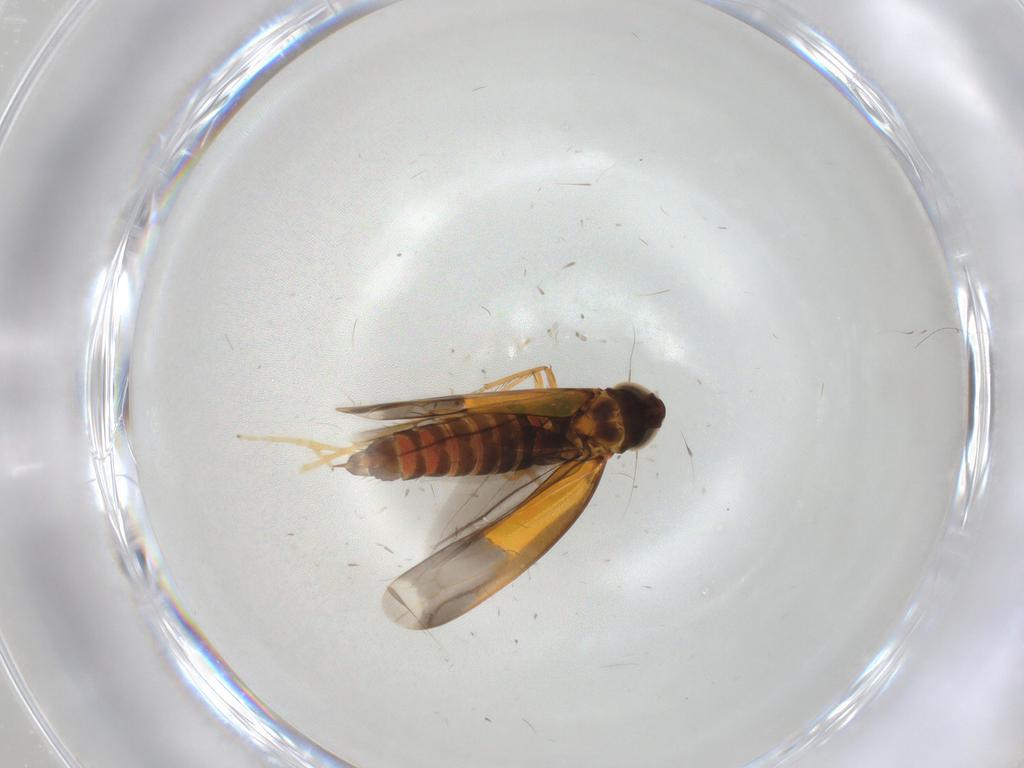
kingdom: Animalia
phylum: Arthropoda
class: Insecta
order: Hemiptera
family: Cicadellidae
